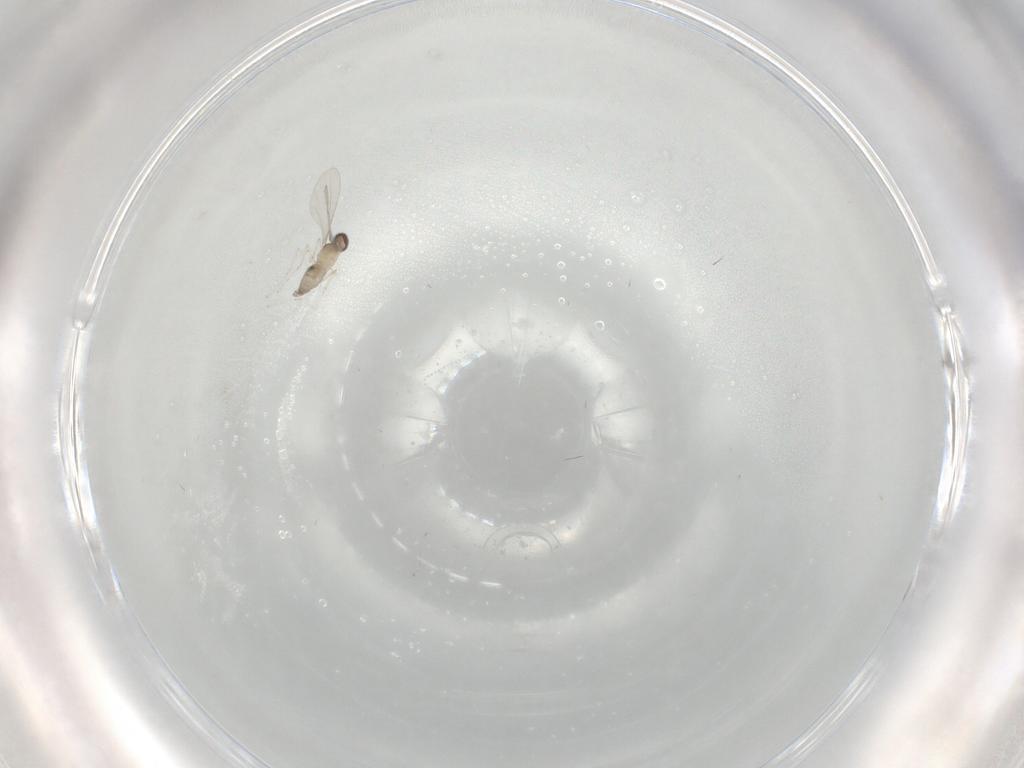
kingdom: Animalia
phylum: Arthropoda
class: Insecta
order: Diptera
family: Cecidomyiidae
